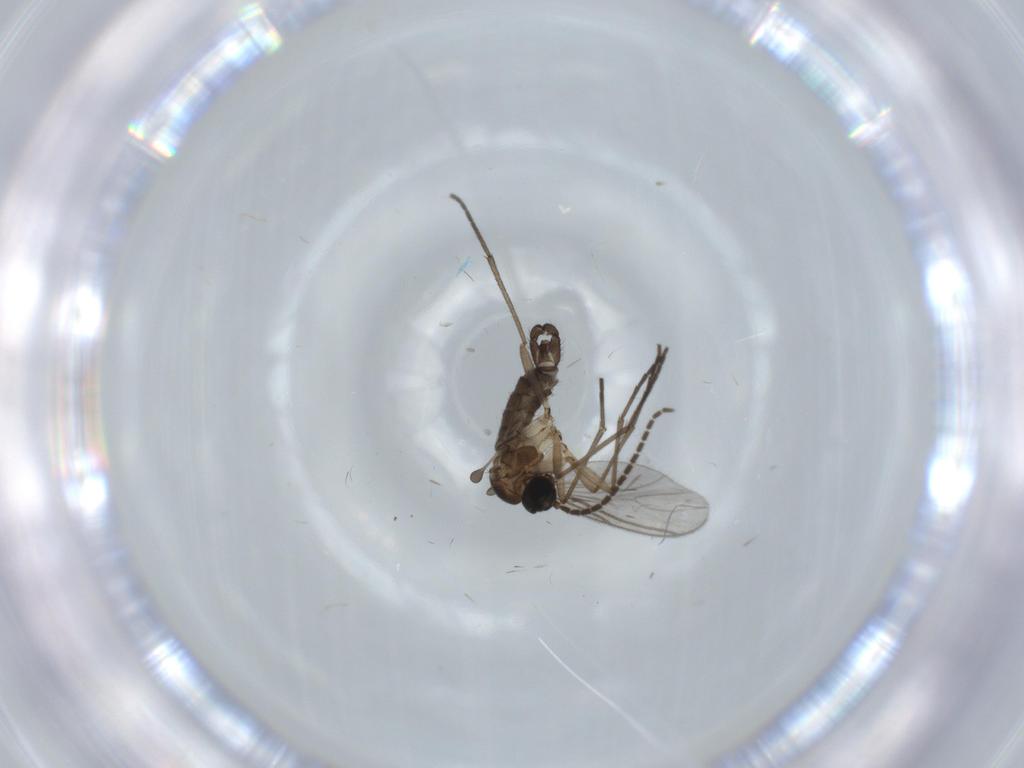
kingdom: Animalia
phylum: Arthropoda
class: Insecta
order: Diptera
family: Sciaridae
